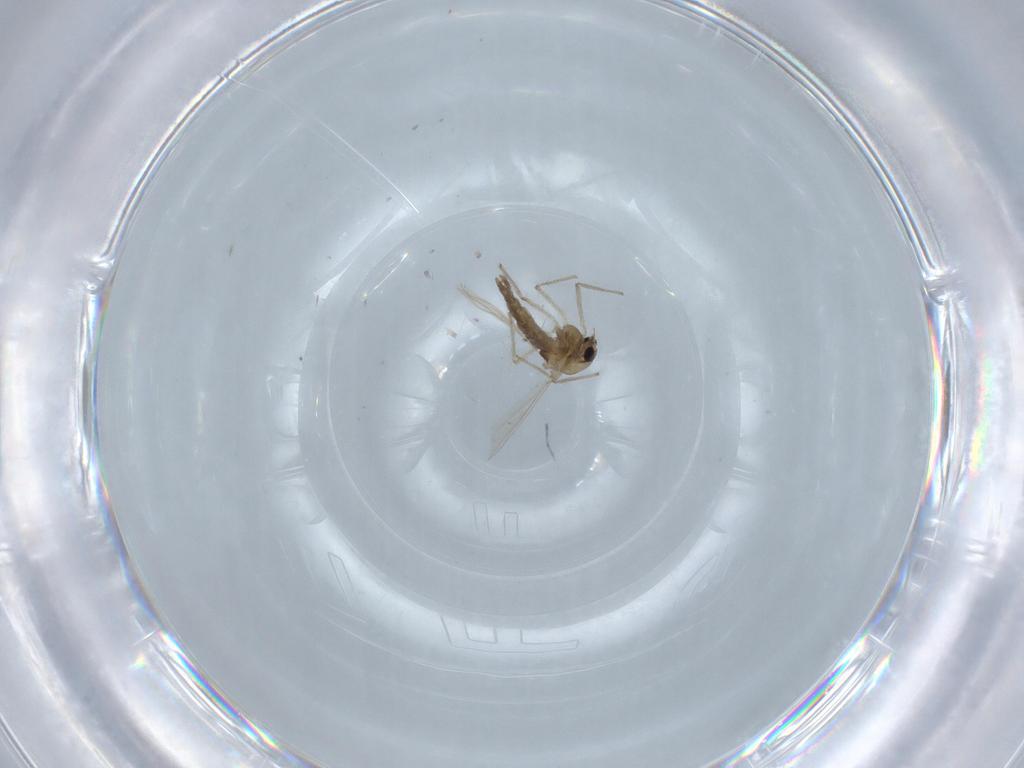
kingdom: Animalia
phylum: Arthropoda
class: Insecta
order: Diptera
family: Chironomidae
